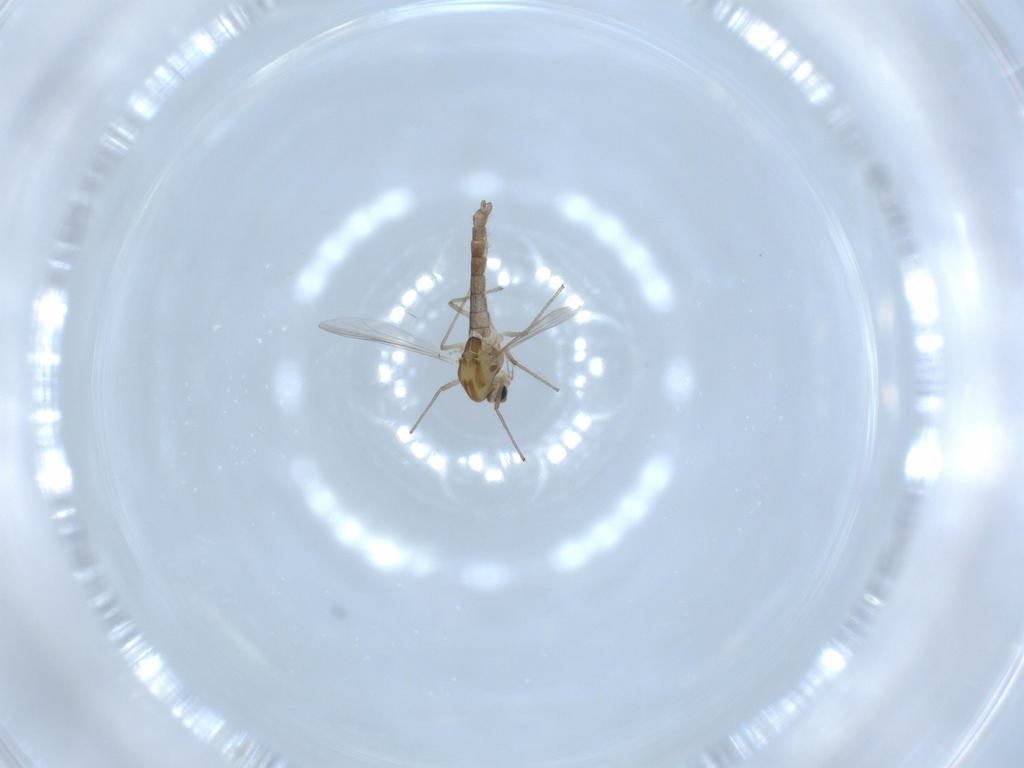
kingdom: Animalia
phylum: Arthropoda
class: Insecta
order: Diptera
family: Chironomidae
